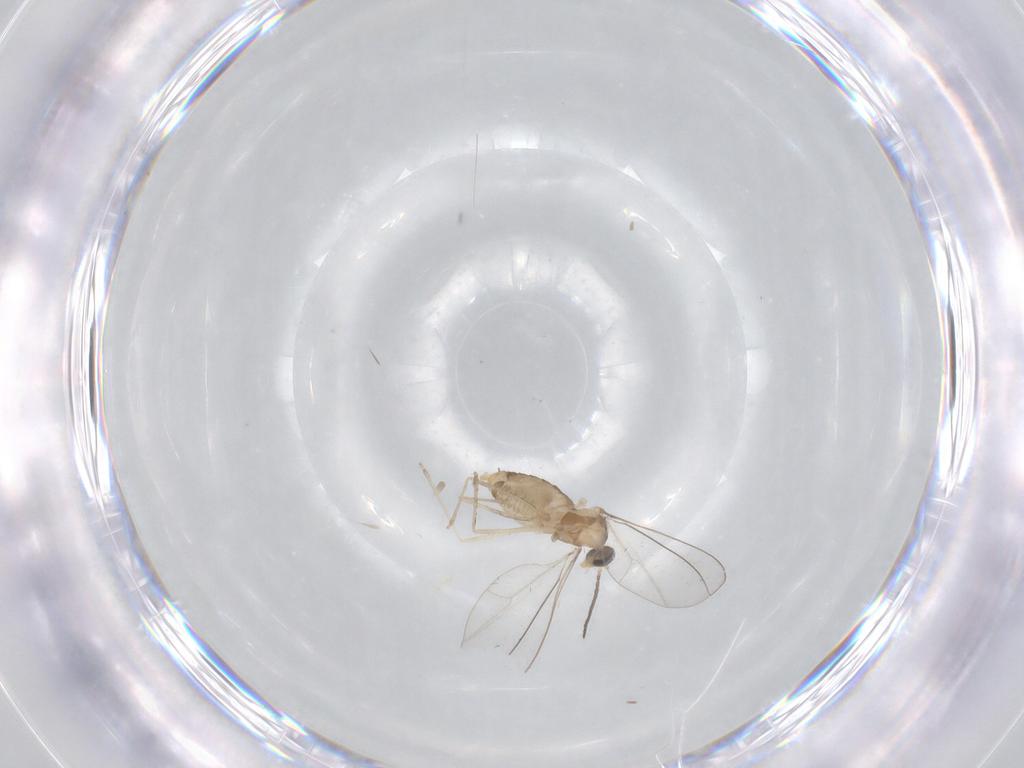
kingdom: Animalia
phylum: Arthropoda
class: Insecta
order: Diptera
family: Cecidomyiidae
